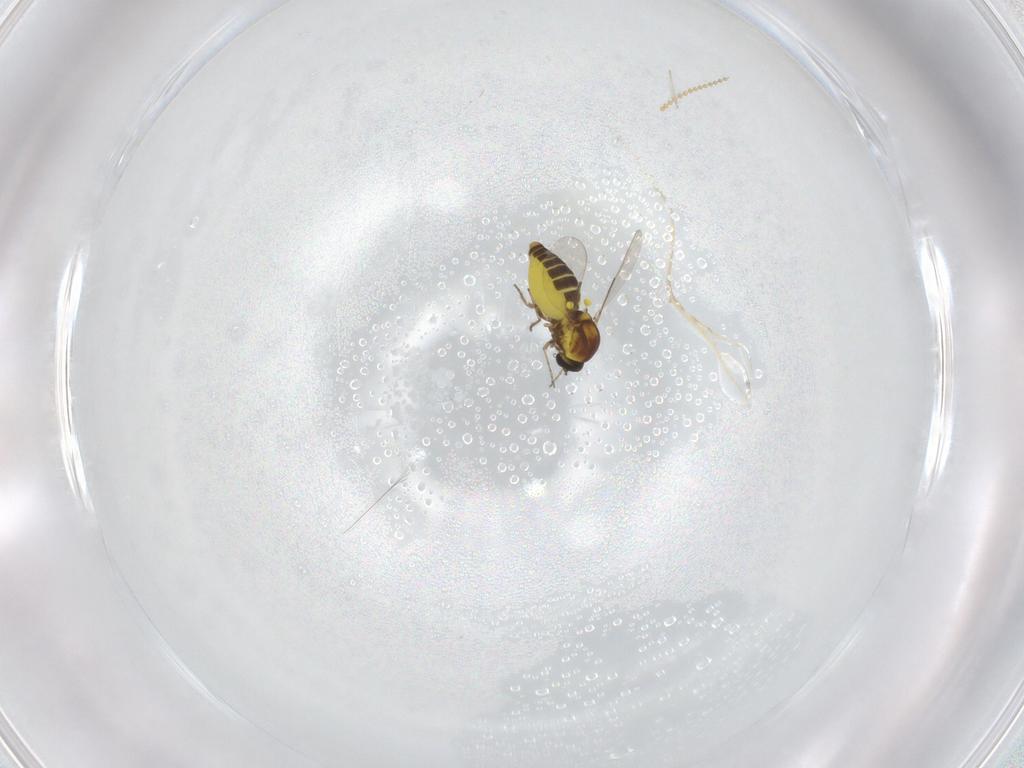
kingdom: Animalia
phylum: Arthropoda
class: Insecta
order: Diptera
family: Ceratopogonidae
